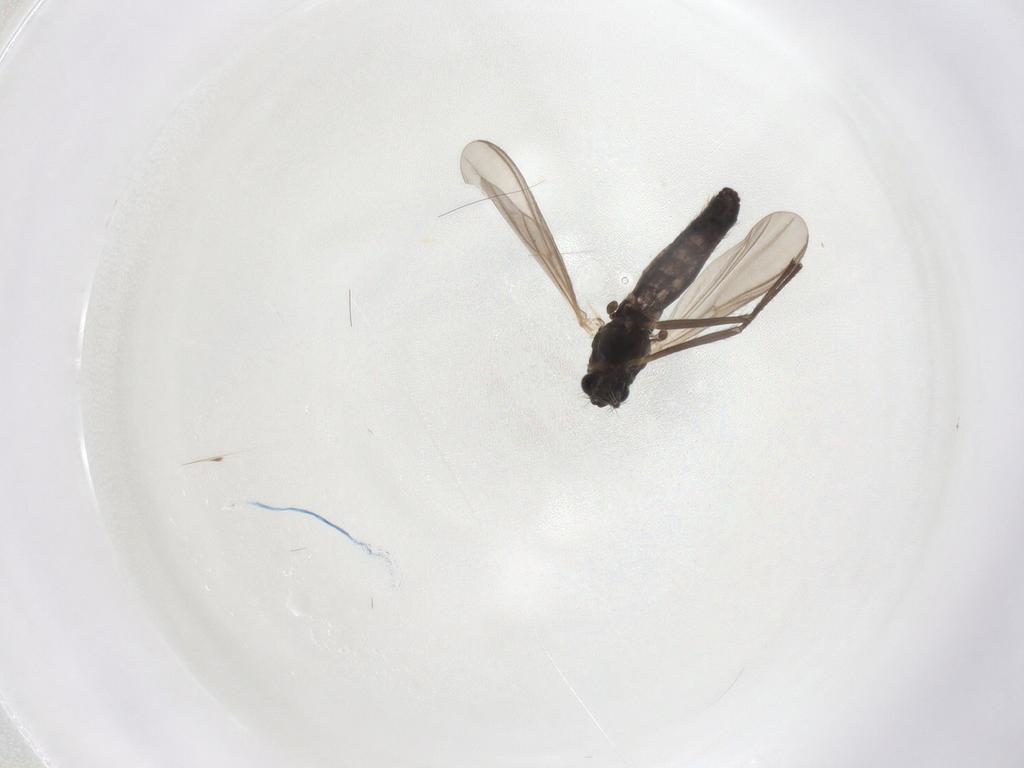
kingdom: Animalia
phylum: Arthropoda
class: Insecta
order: Diptera
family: Chironomidae
